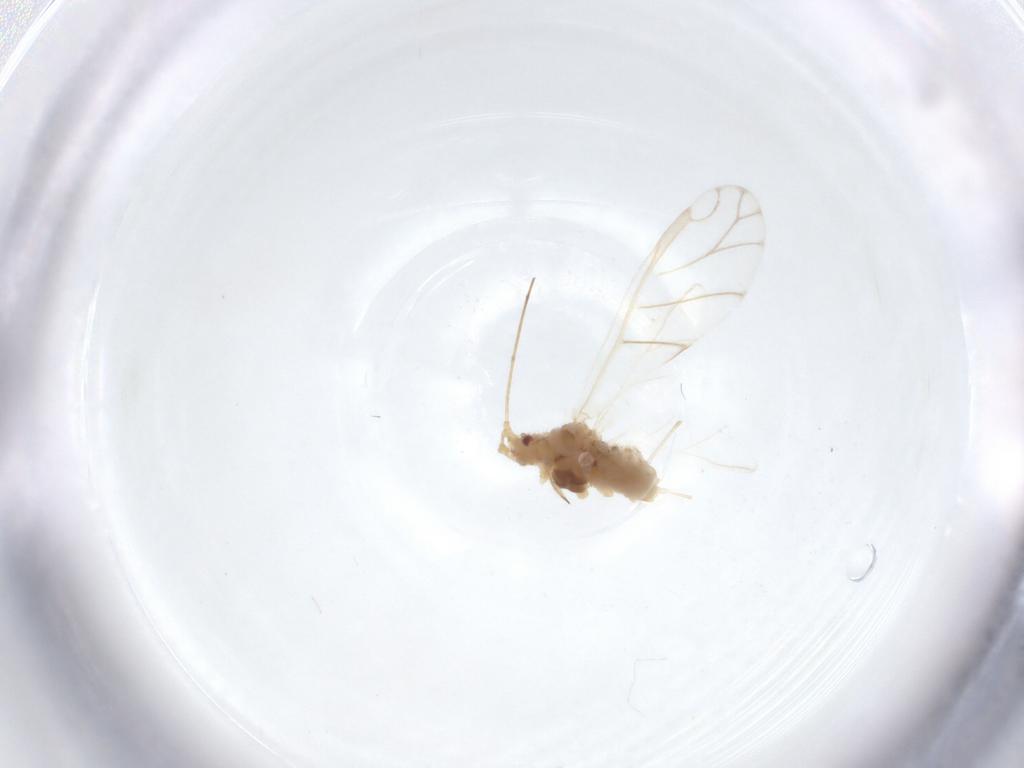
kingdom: Animalia
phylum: Arthropoda
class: Insecta
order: Hemiptera
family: Aphididae
